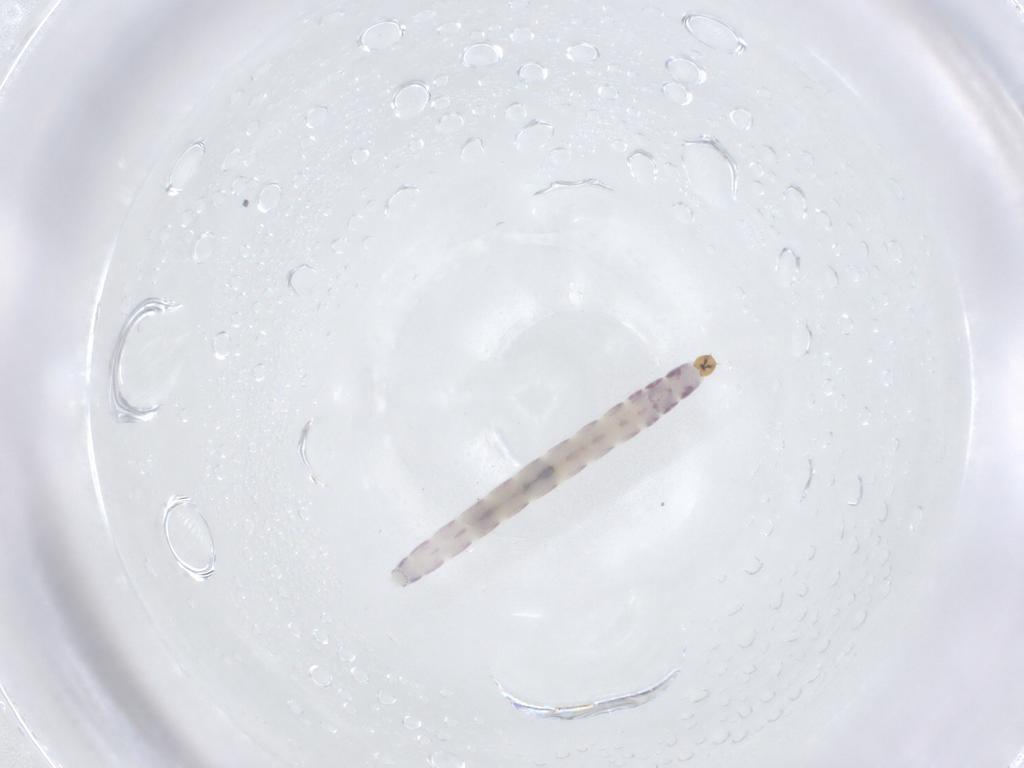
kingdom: Animalia
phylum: Arthropoda
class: Insecta
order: Diptera
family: Chironomidae
